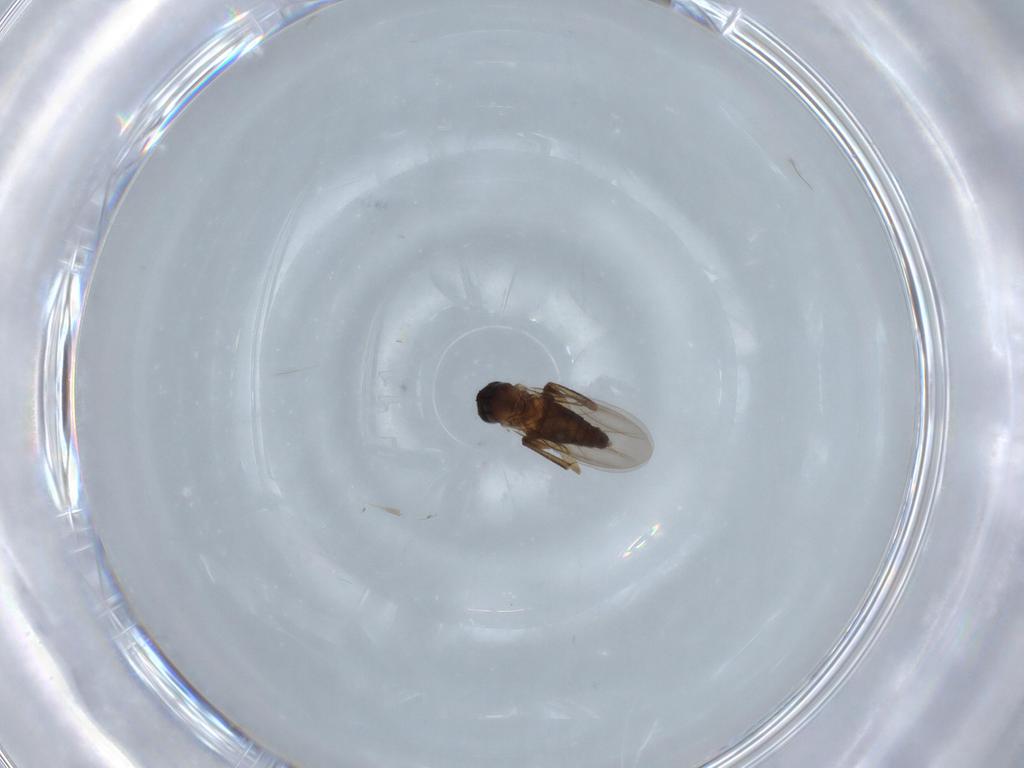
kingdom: Animalia
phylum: Arthropoda
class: Insecta
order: Diptera
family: Phoridae
